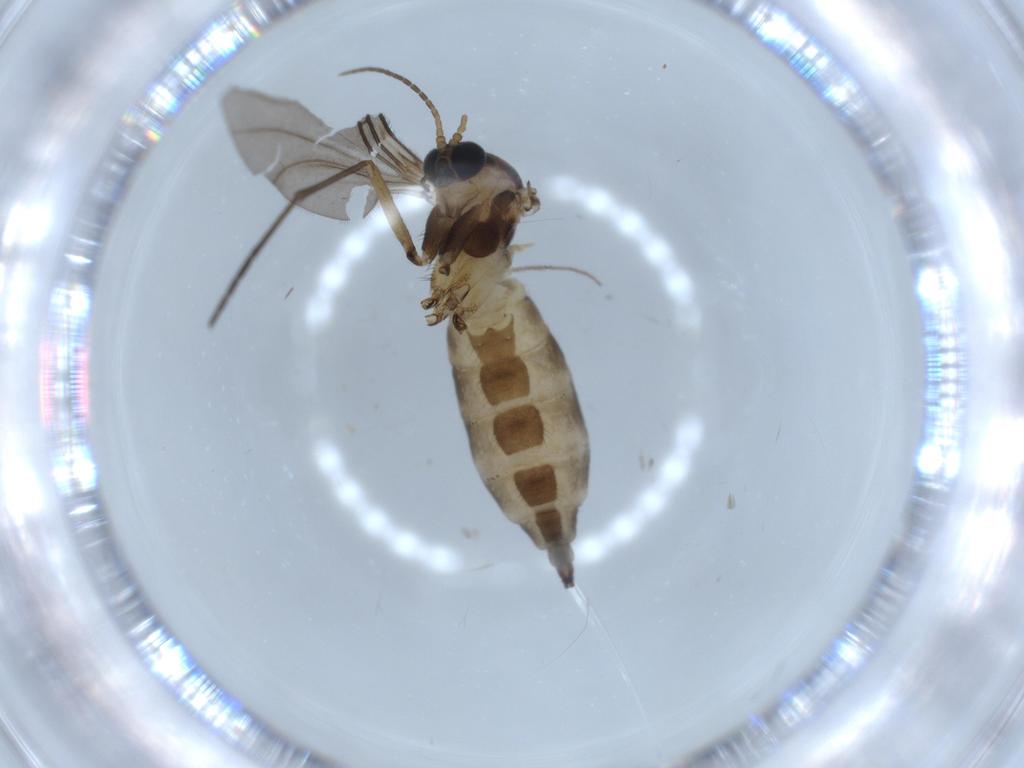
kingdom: Animalia
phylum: Arthropoda
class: Insecta
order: Diptera
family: Sciaridae
